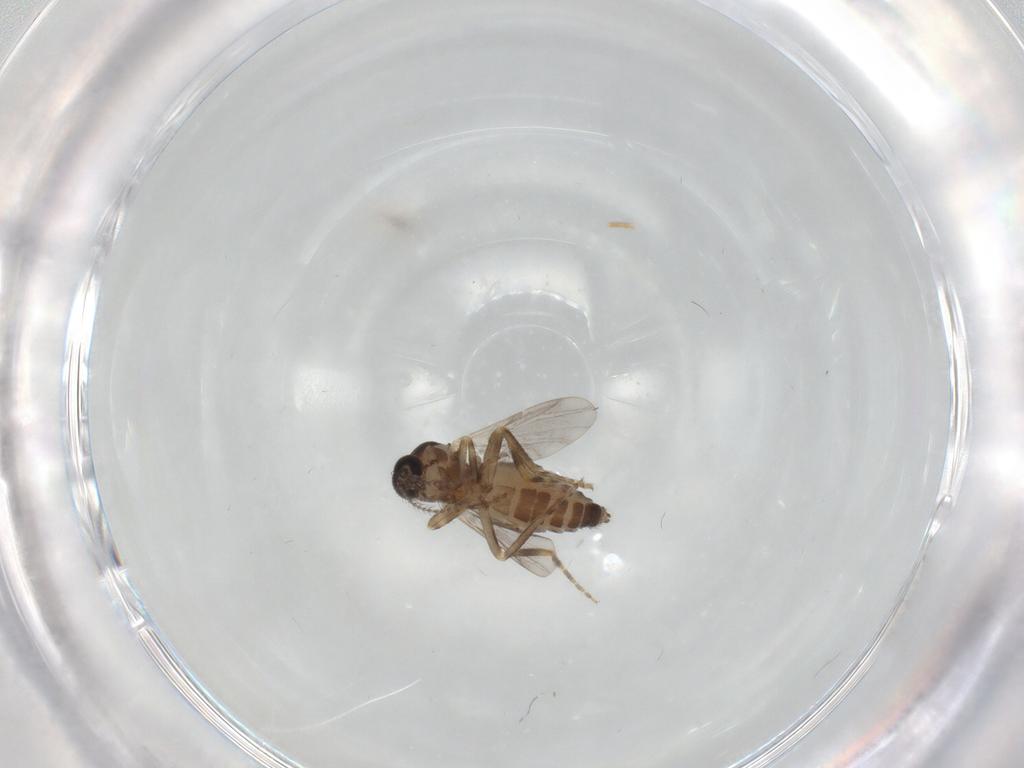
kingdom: Animalia
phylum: Arthropoda
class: Insecta
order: Diptera
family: Ceratopogonidae
